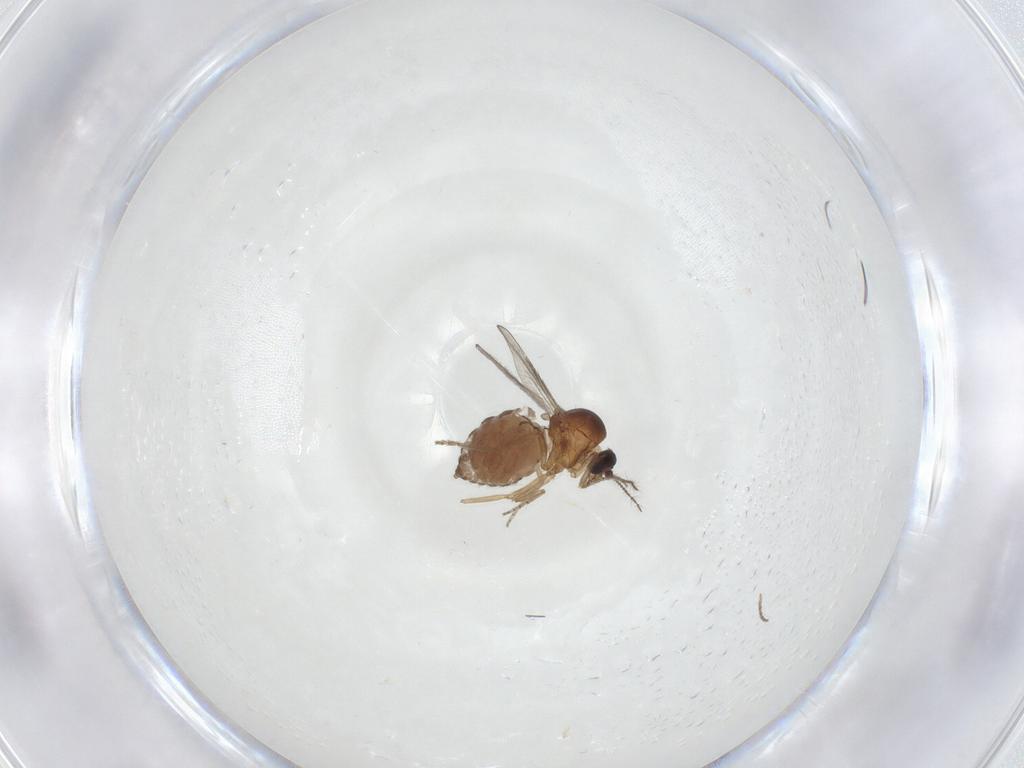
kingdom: Animalia
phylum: Arthropoda
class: Insecta
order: Diptera
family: Ceratopogonidae
